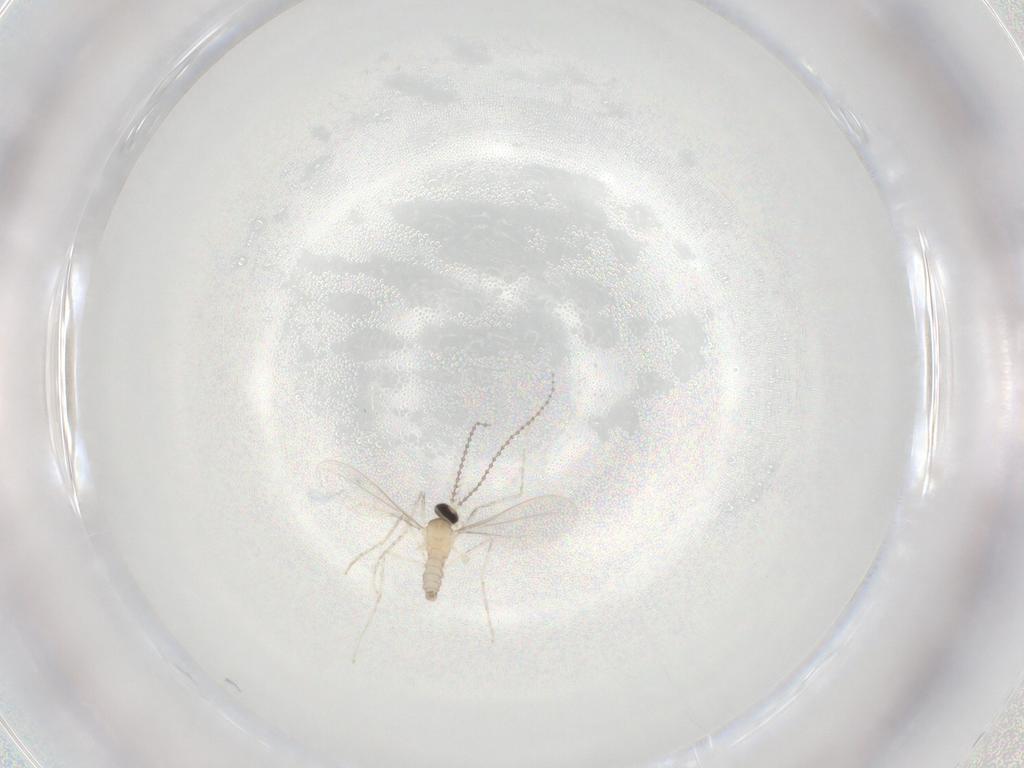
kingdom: Animalia
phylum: Arthropoda
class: Insecta
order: Diptera
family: Cecidomyiidae
